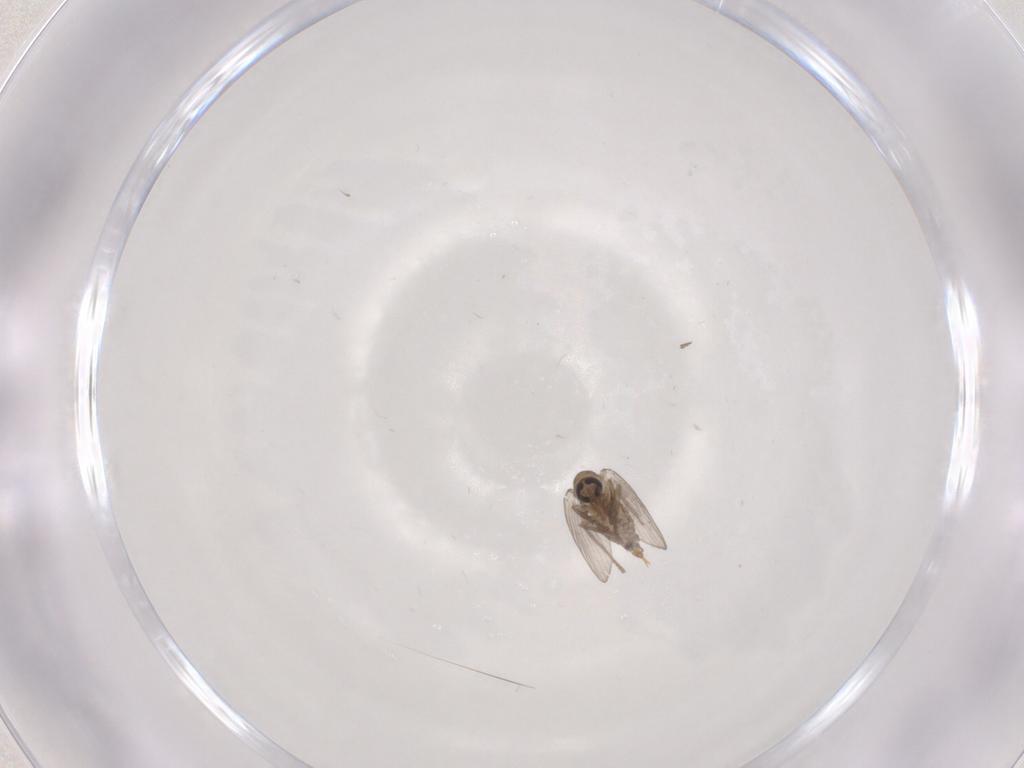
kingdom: Animalia
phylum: Arthropoda
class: Insecta
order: Diptera
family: Psychodidae
